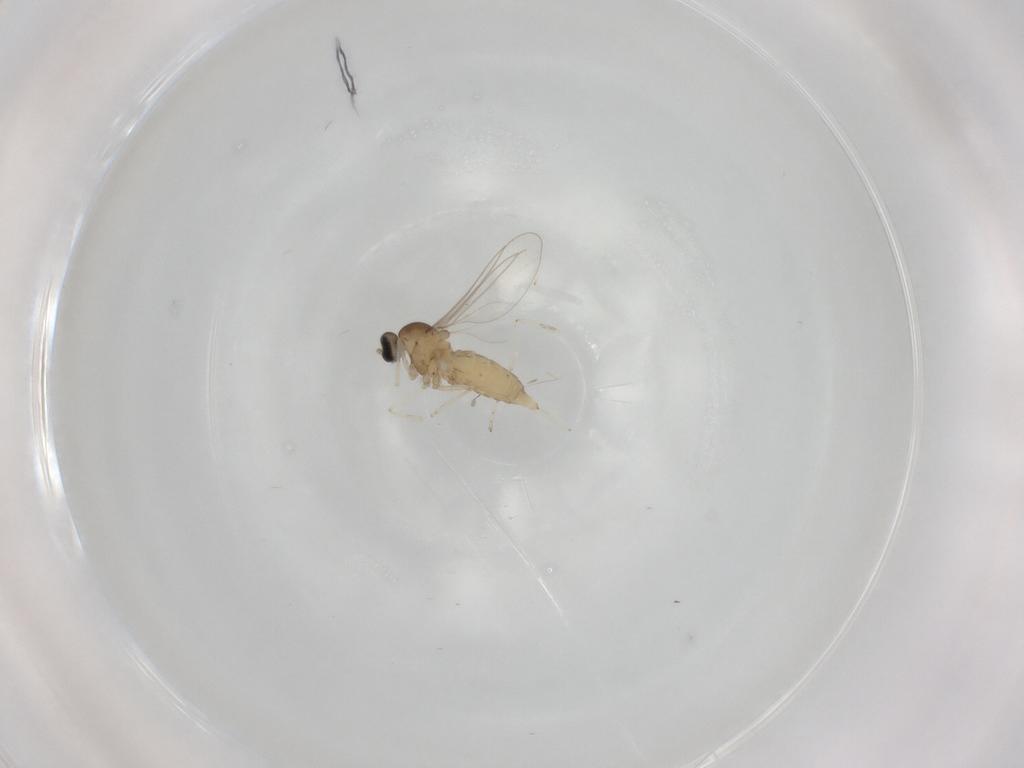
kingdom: Animalia
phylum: Arthropoda
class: Insecta
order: Diptera
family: Cecidomyiidae
